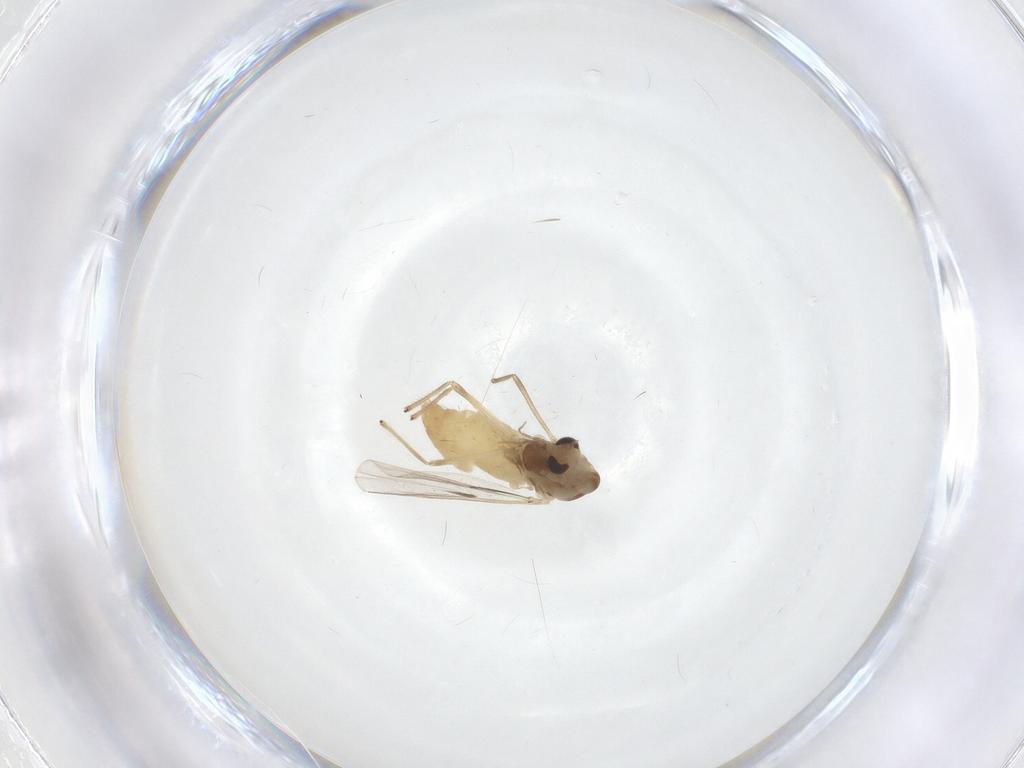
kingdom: Animalia
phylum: Arthropoda
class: Insecta
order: Diptera
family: Chironomidae
